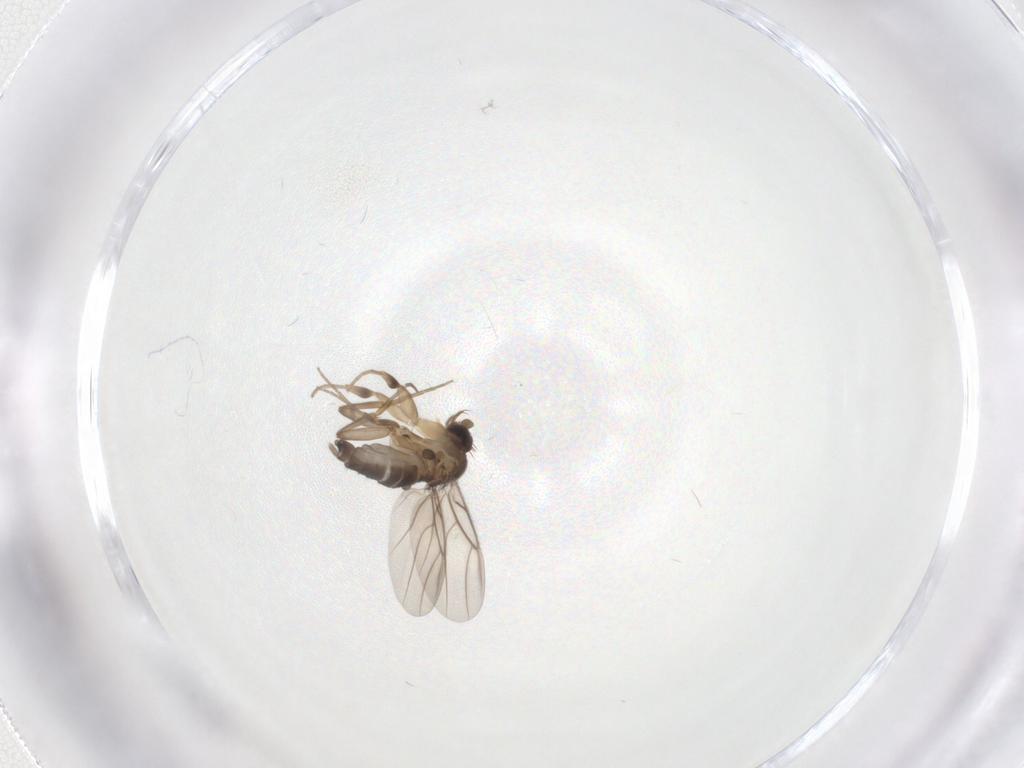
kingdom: Animalia
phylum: Arthropoda
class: Insecta
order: Diptera
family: Phoridae
